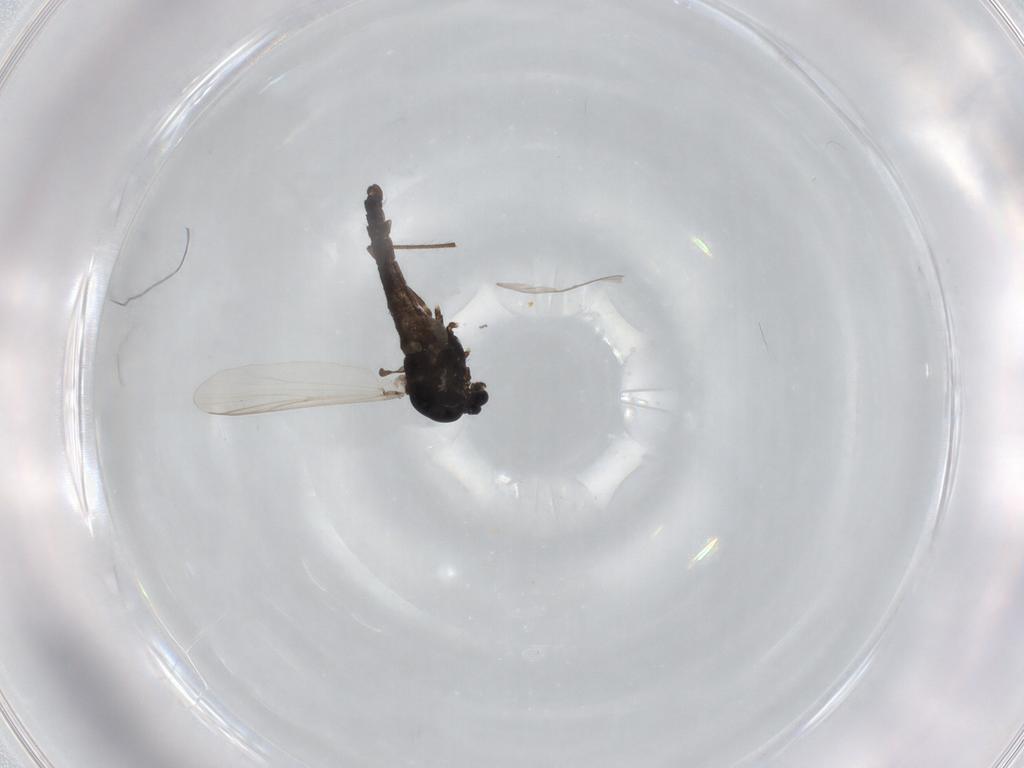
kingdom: Animalia
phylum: Arthropoda
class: Insecta
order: Diptera
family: Chironomidae
